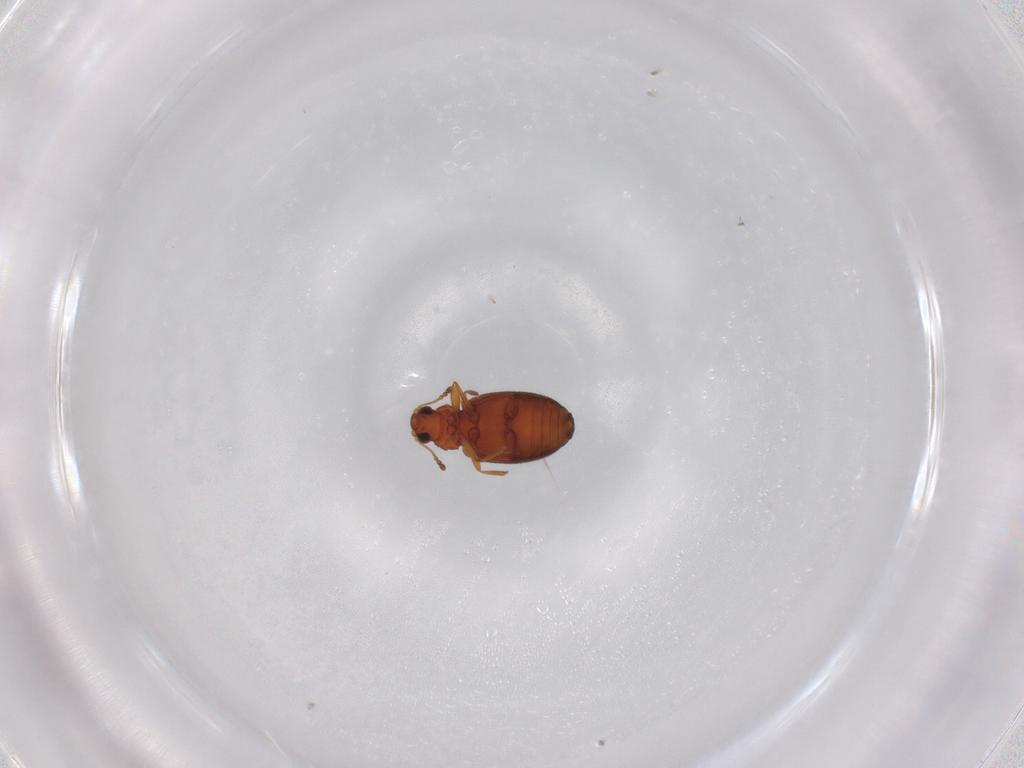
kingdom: Animalia
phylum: Arthropoda
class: Insecta
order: Coleoptera
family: Latridiidae
